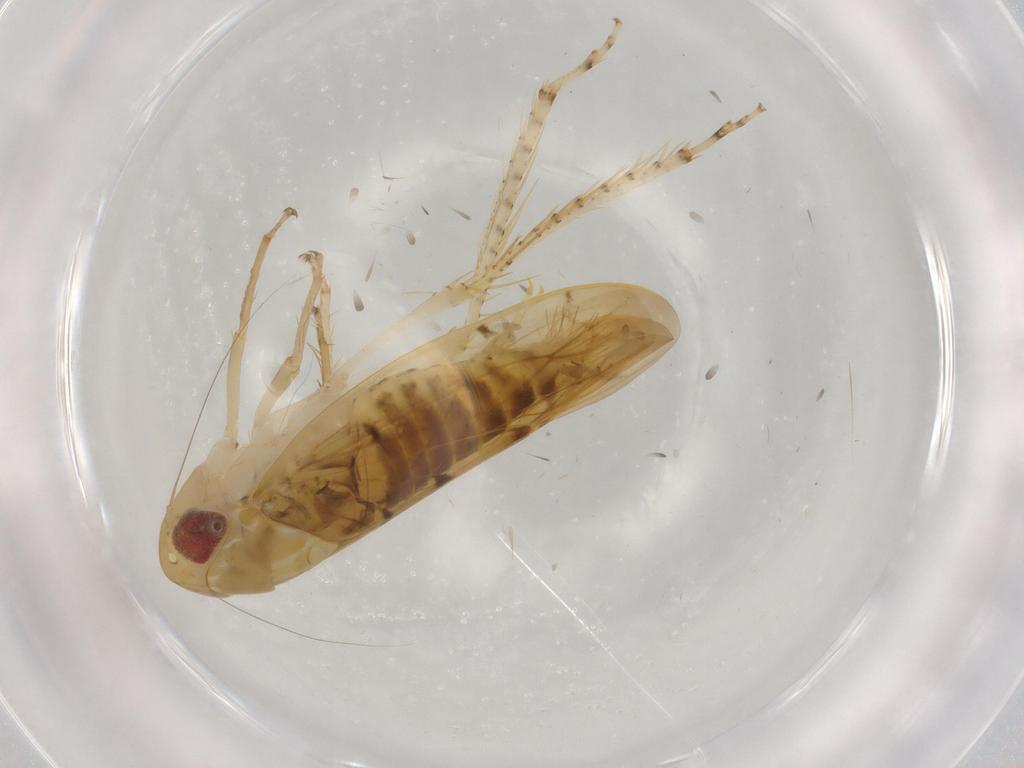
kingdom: Animalia
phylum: Arthropoda
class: Insecta
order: Hemiptera
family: Cicadellidae
